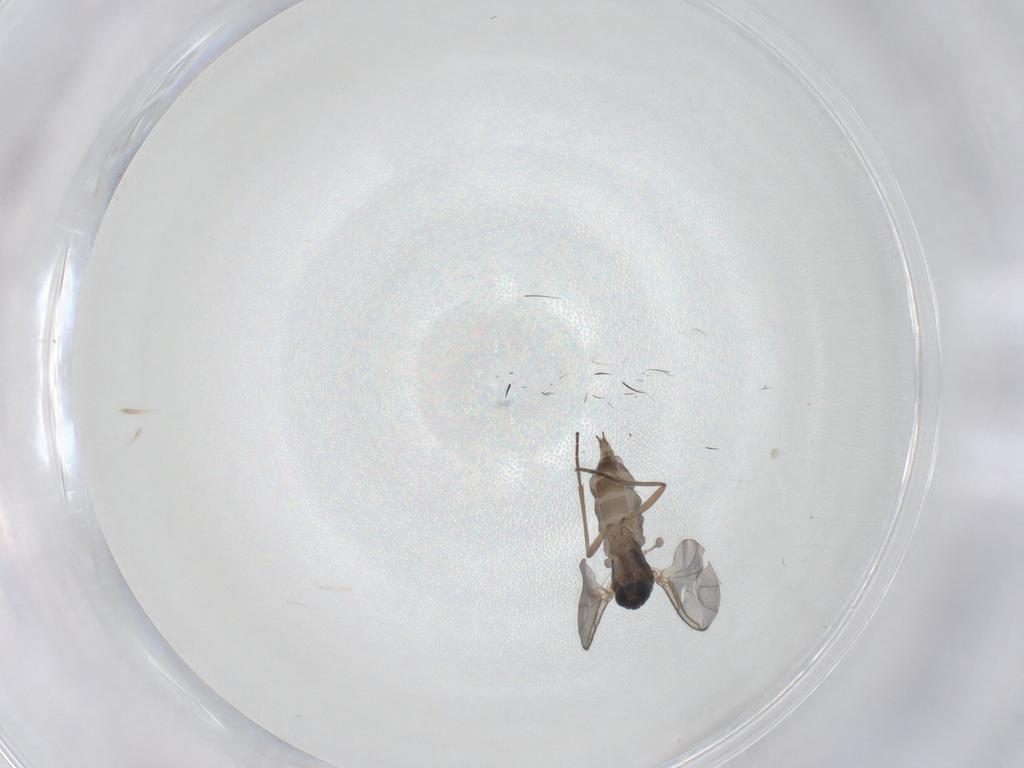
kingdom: Animalia
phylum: Arthropoda
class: Insecta
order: Diptera
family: Sciaridae
